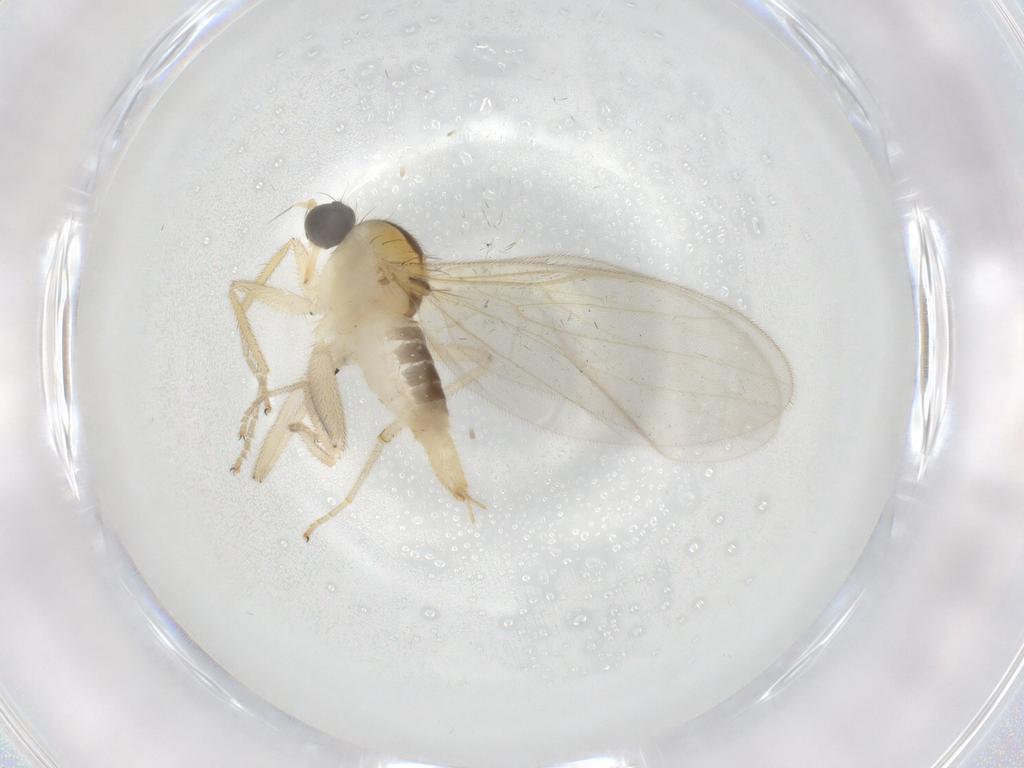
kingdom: Animalia
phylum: Arthropoda
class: Insecta
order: Diptera
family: Hybotidae
